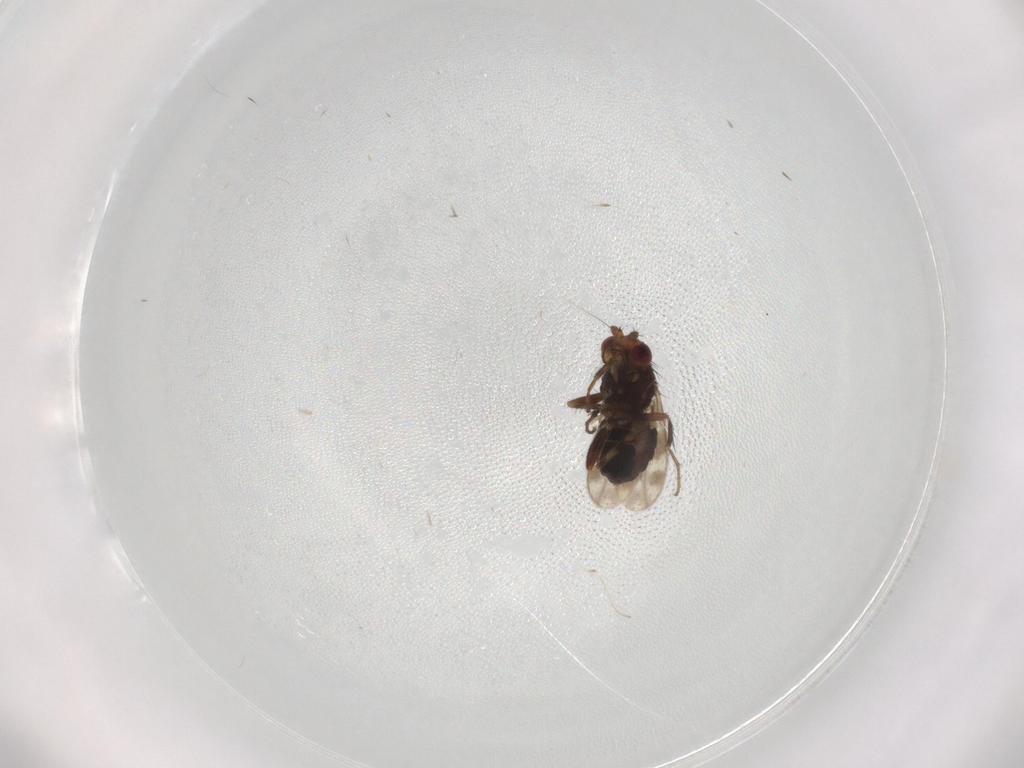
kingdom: Animalia
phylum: Arthropoda
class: Insecta
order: Diptera
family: Sphaeroceridae
